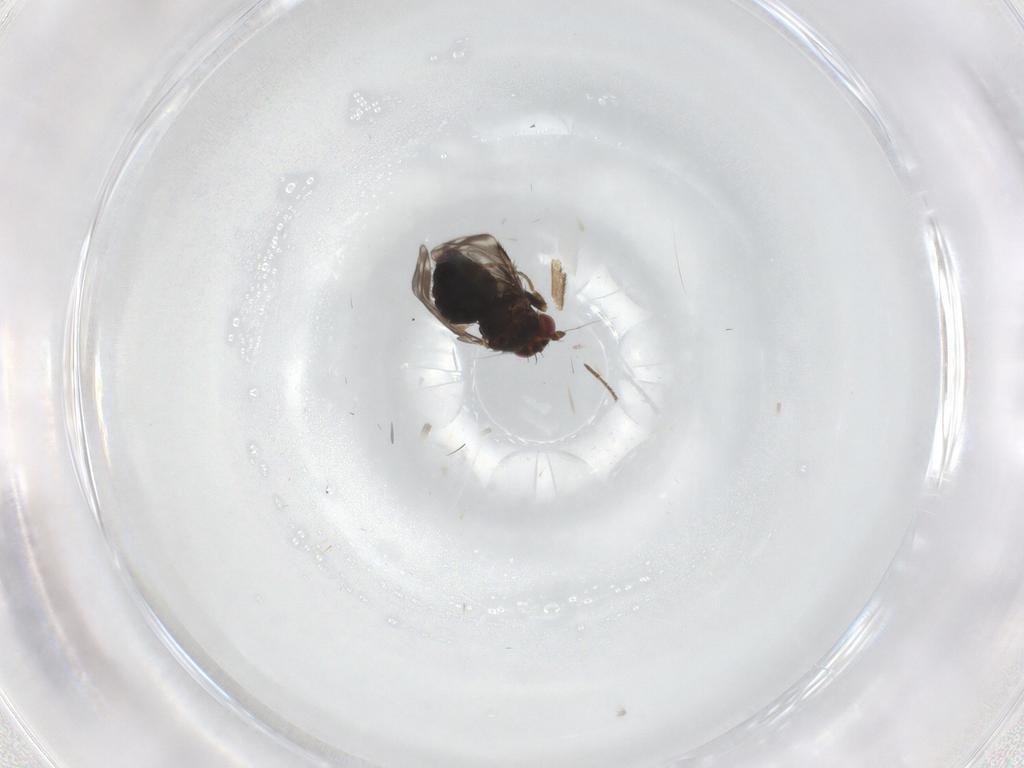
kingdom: Animalia
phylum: Arthropoda
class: Insecta
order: Diptera
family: Sphaeroceridae
